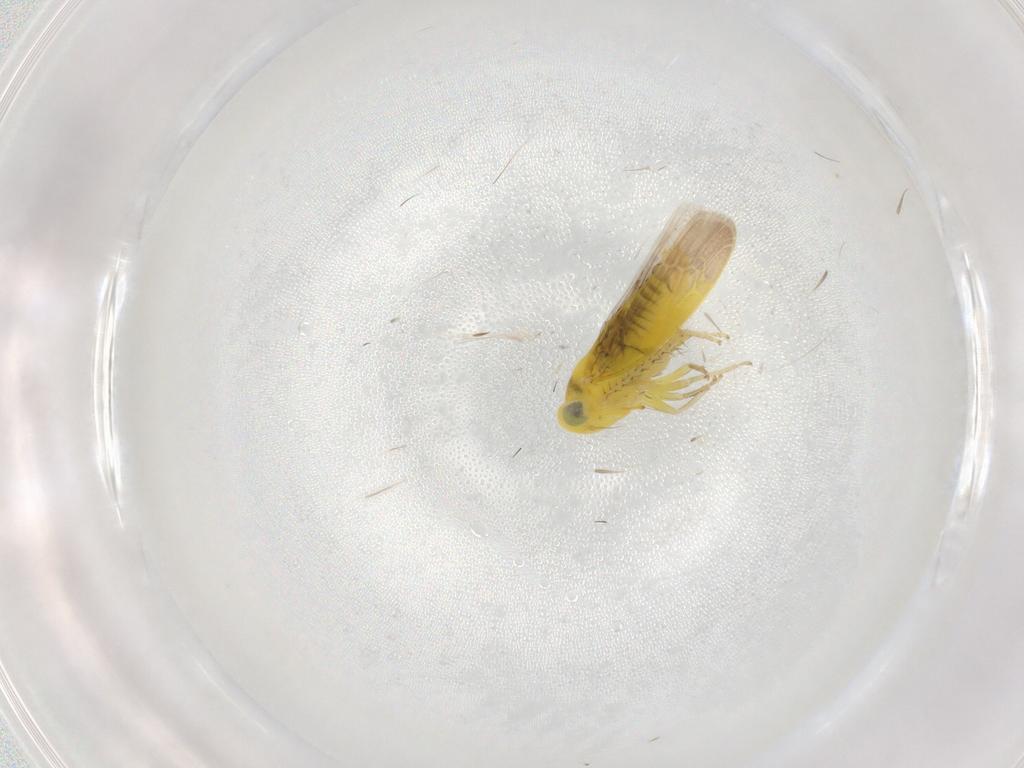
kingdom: Animalia
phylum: Arthropoda
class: Insecta
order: Hemiptera
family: Cicadellidae
